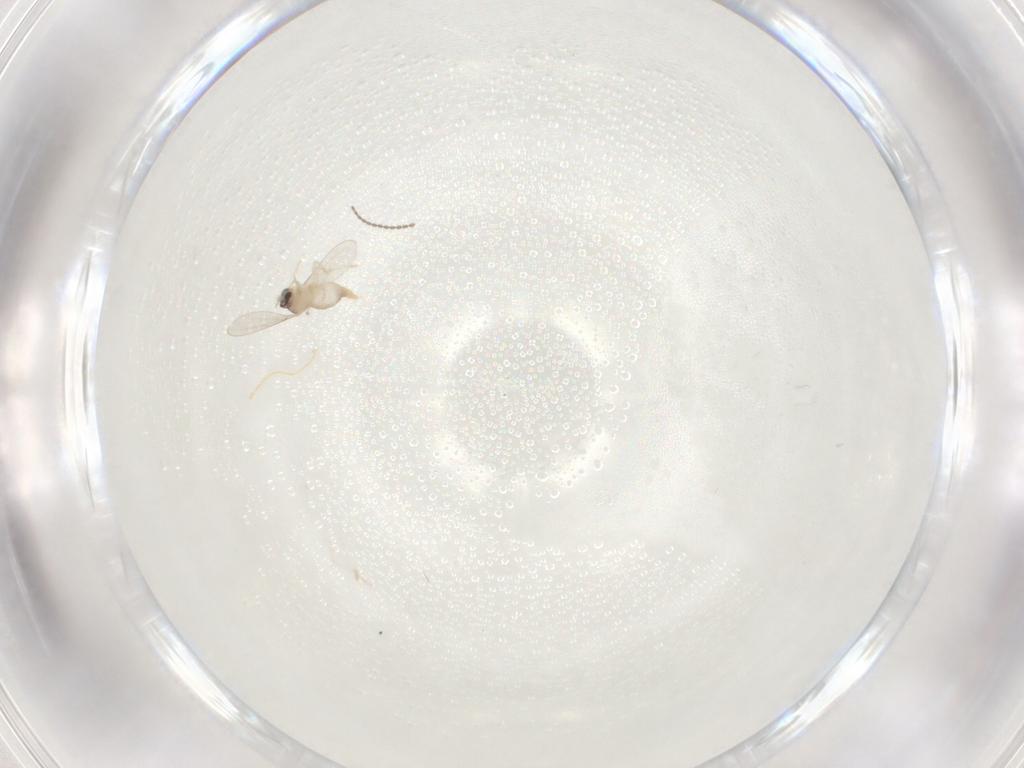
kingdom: Animalia
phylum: Arthropoda
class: Insecta
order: Diptera
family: Cecidomyiidae
